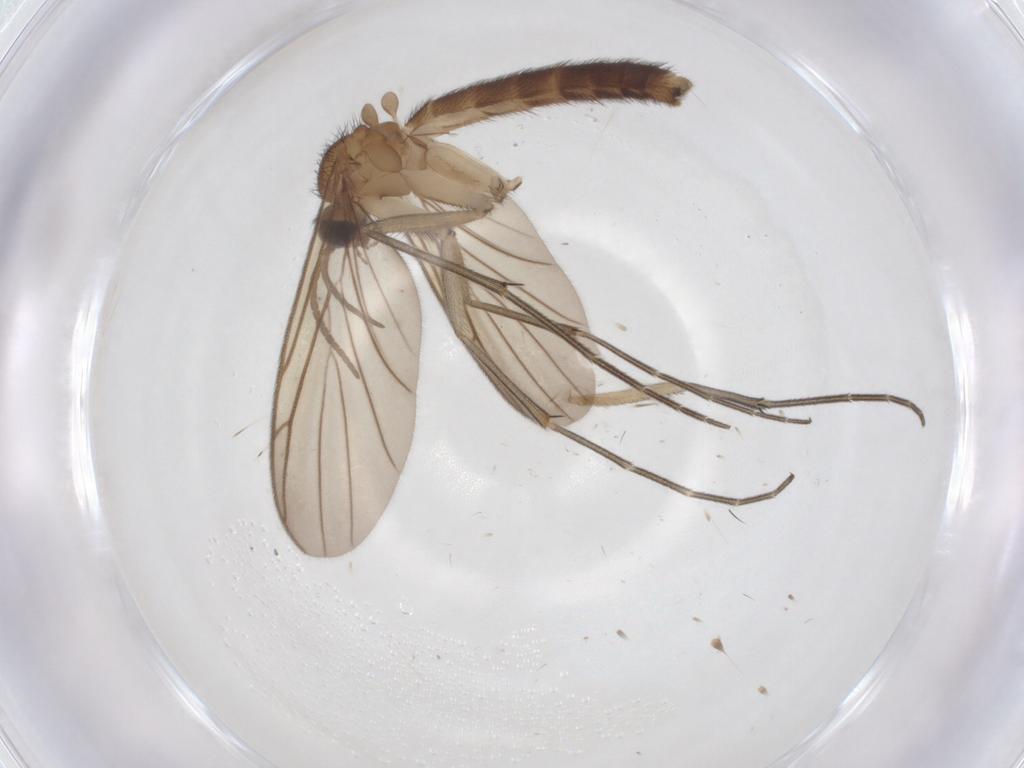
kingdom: Animalia
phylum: Arthropoda
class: Insecta
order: Diptera
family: Keroplatidae
